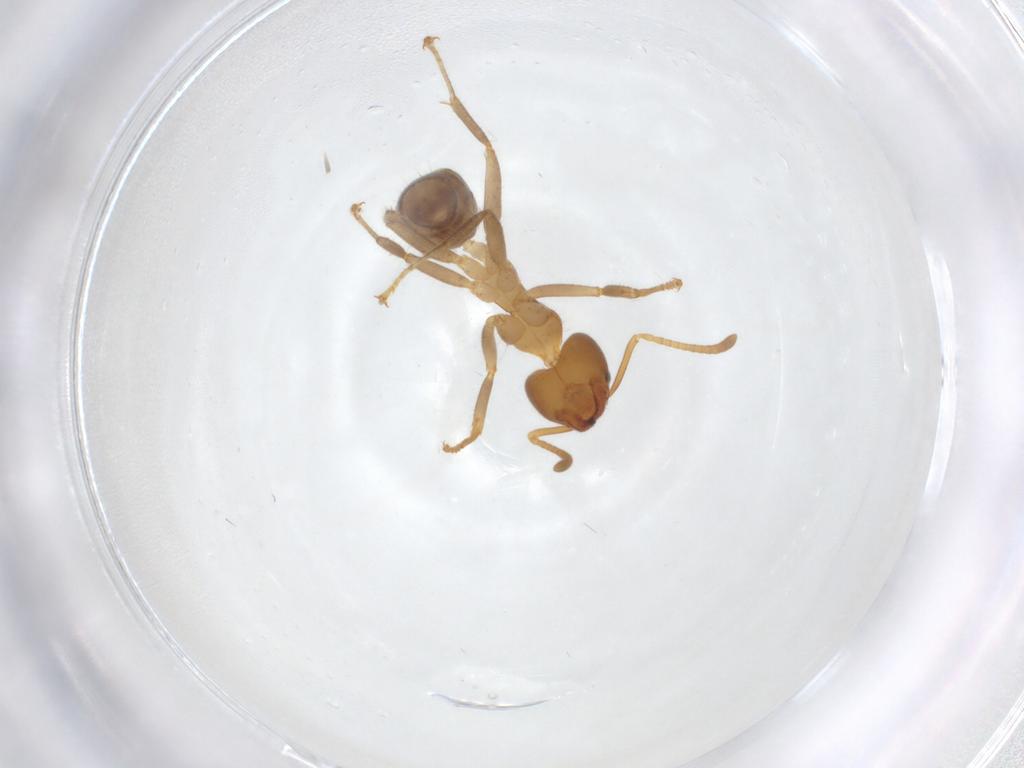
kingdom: Animalia
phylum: Arthropoda
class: Insecta
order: Hymenoptera
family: Formicidae
